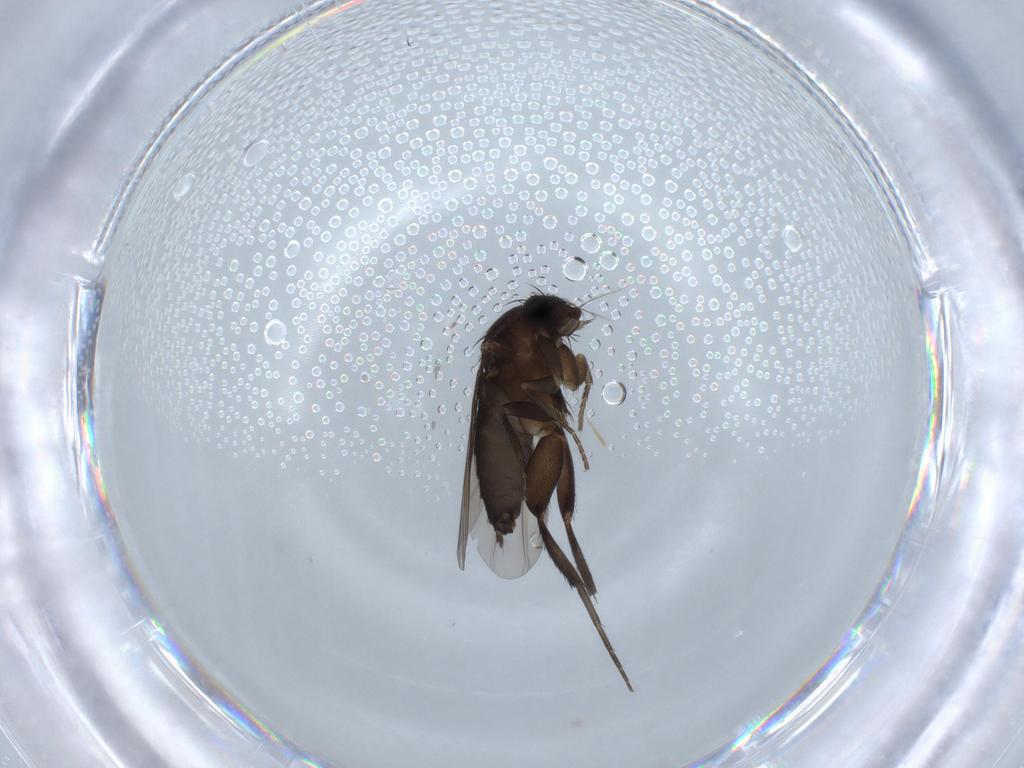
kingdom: Animalia
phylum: Arthropoda
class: Insecta
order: Diptera
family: Phoridae
